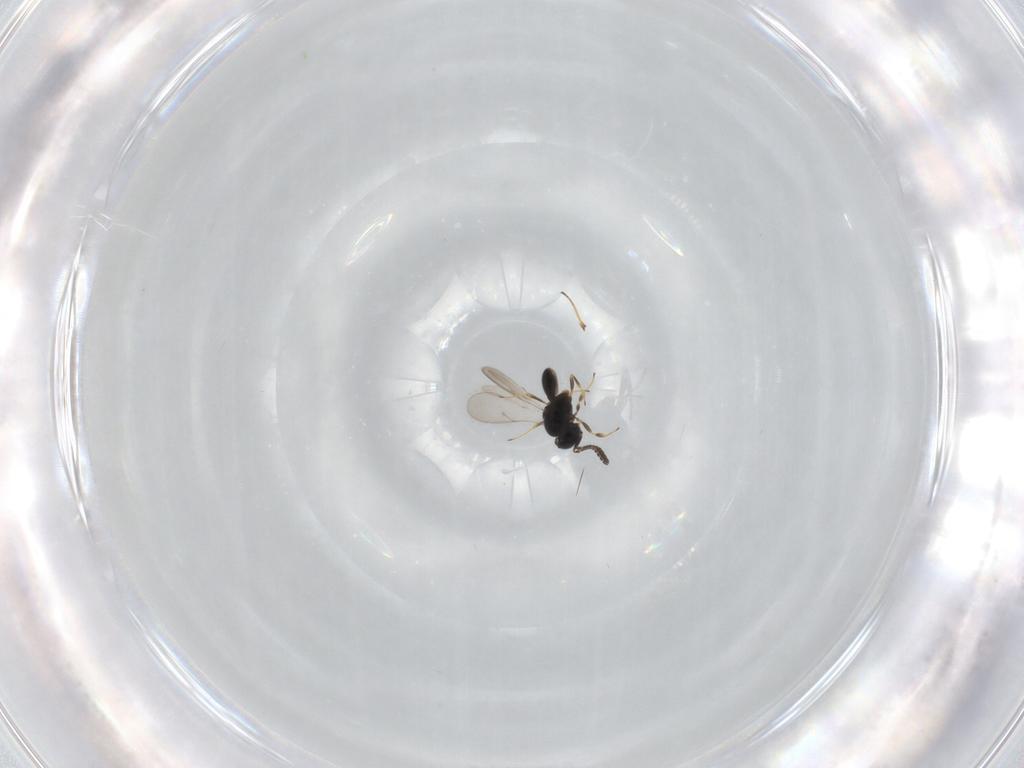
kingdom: Animalia
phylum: Arthropoda
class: Insecta
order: Hymenoptera
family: Scelionidae
